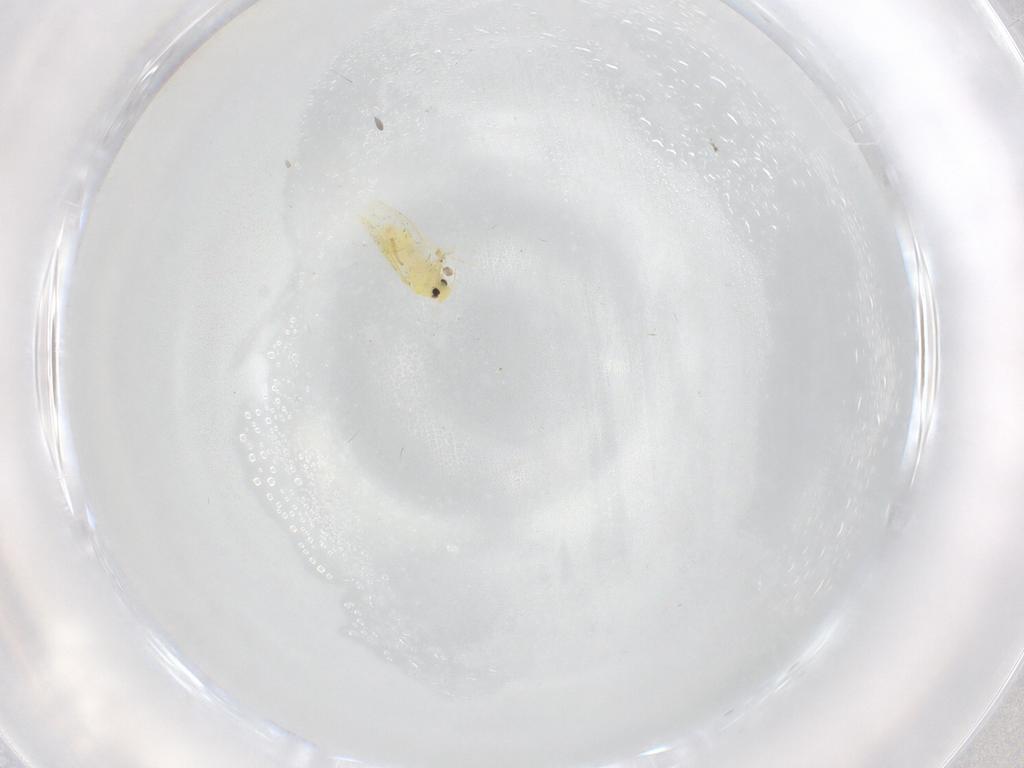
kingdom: Animalia
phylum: Arthropoda
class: Insecta
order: Hemiptera
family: Aleyrodidae
